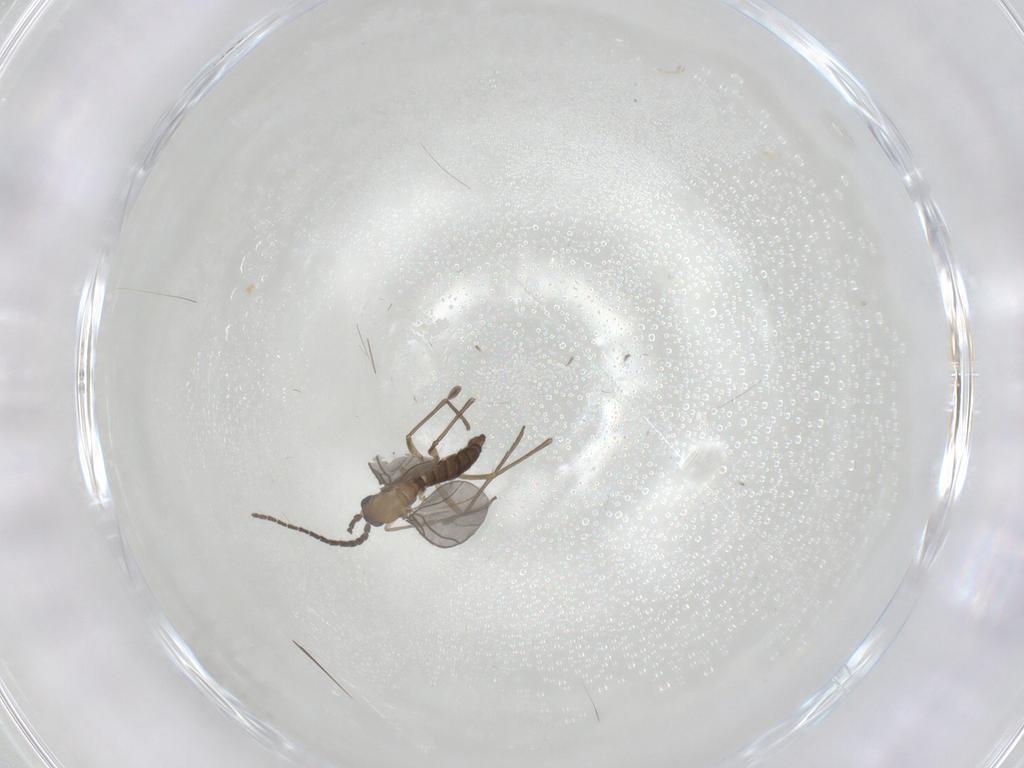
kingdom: Animalia
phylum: Arthropoda
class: Insecta
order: Diptera
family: Sciaridae
